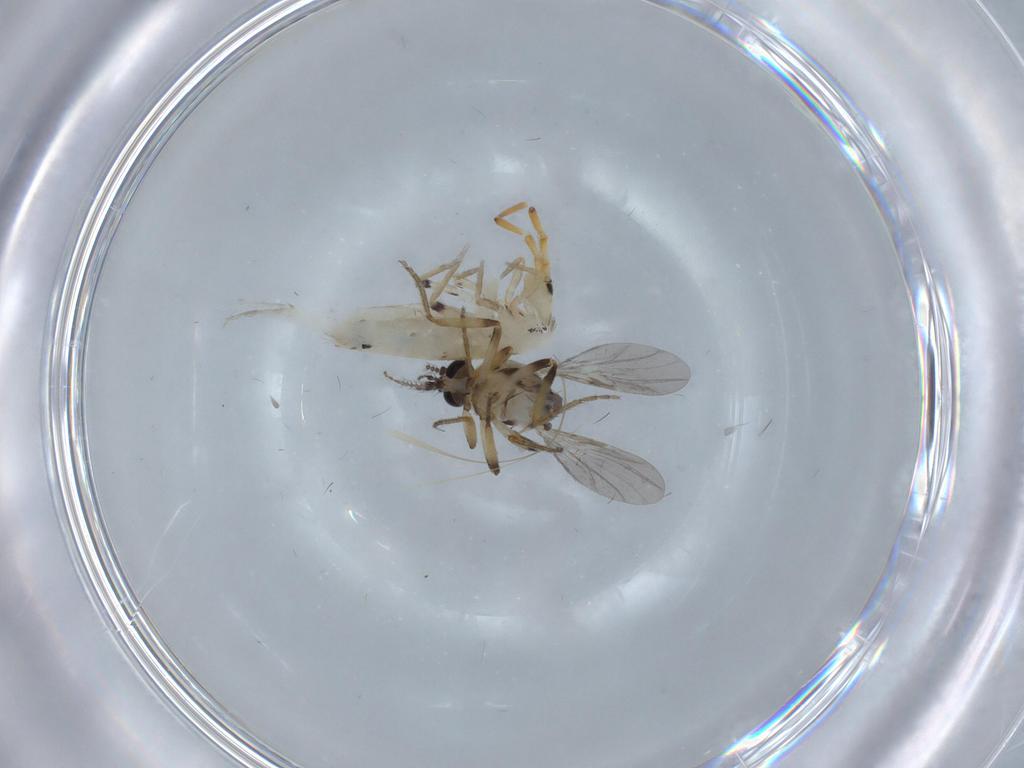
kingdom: Animalia
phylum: Arthropoda
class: Insecta
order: Diptera
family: Ceratopogonidae
